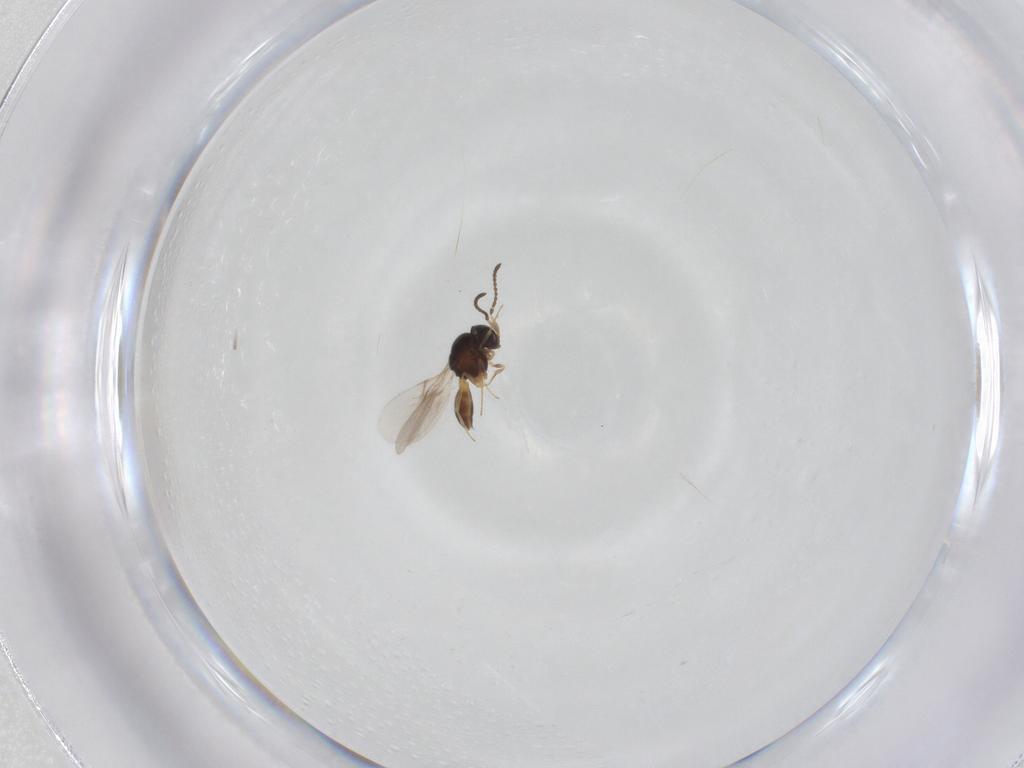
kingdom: Animalia
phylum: Arthropoda
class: Insecta
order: Hymenoptera
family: Scelionidae
